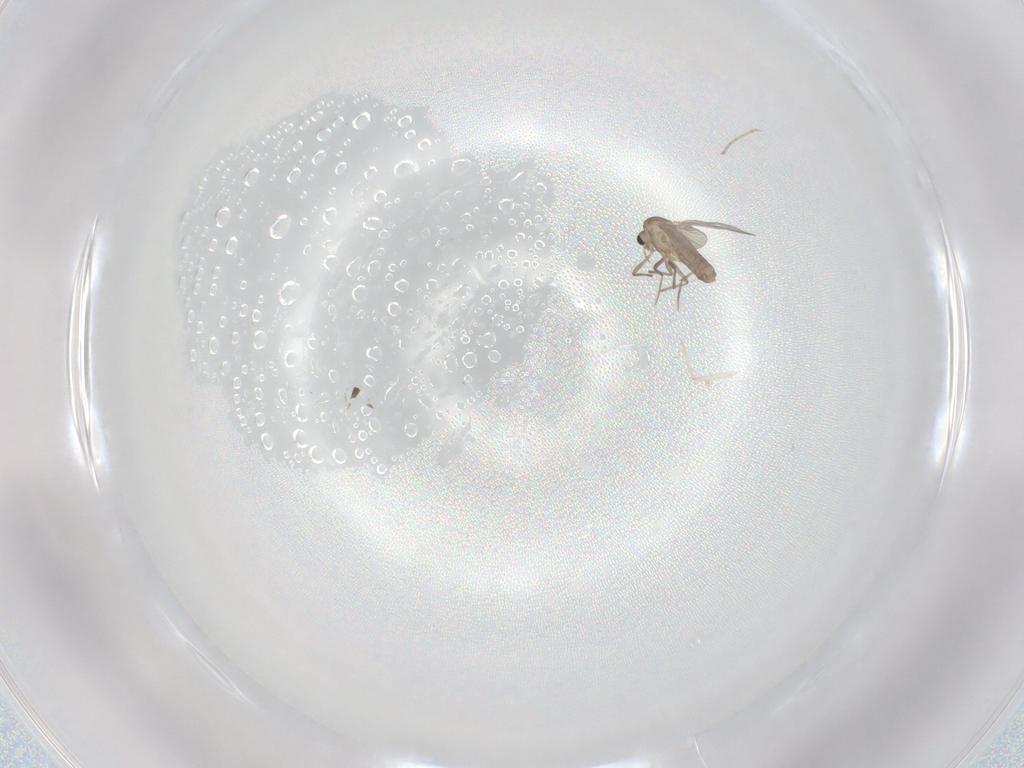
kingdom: Animalia
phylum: Arthropoda
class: Insecta
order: Diptera
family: Chironomidae
